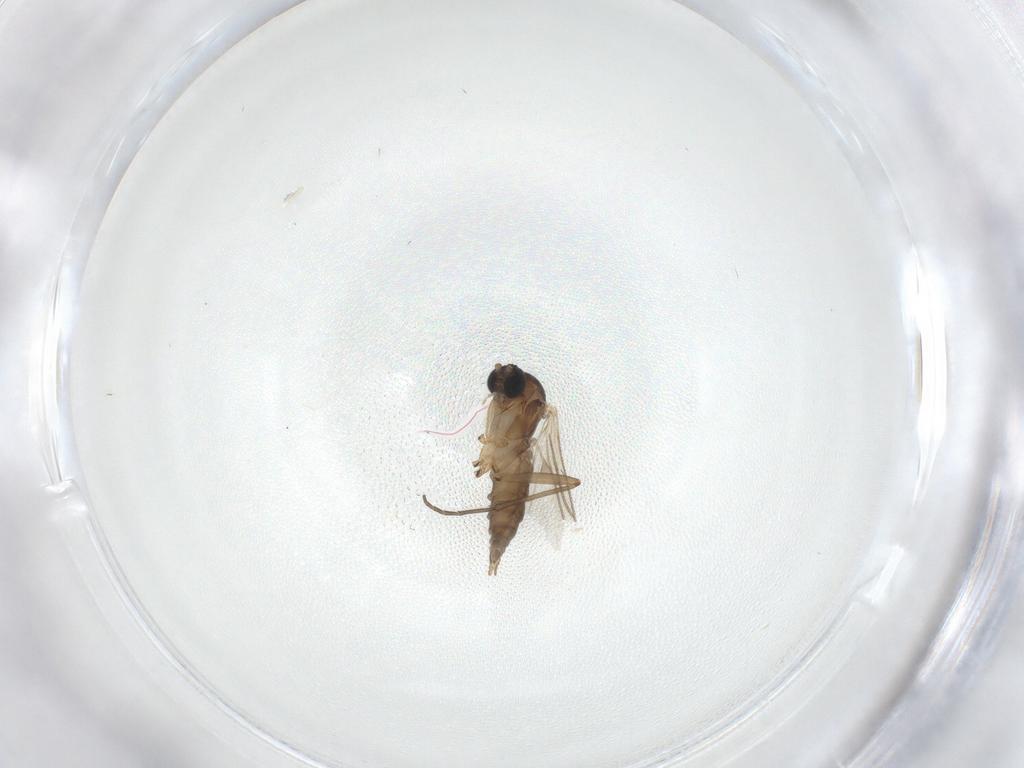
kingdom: Animalia
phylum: Arthropoda
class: Insecta
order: Diptera
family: Sciaridae
